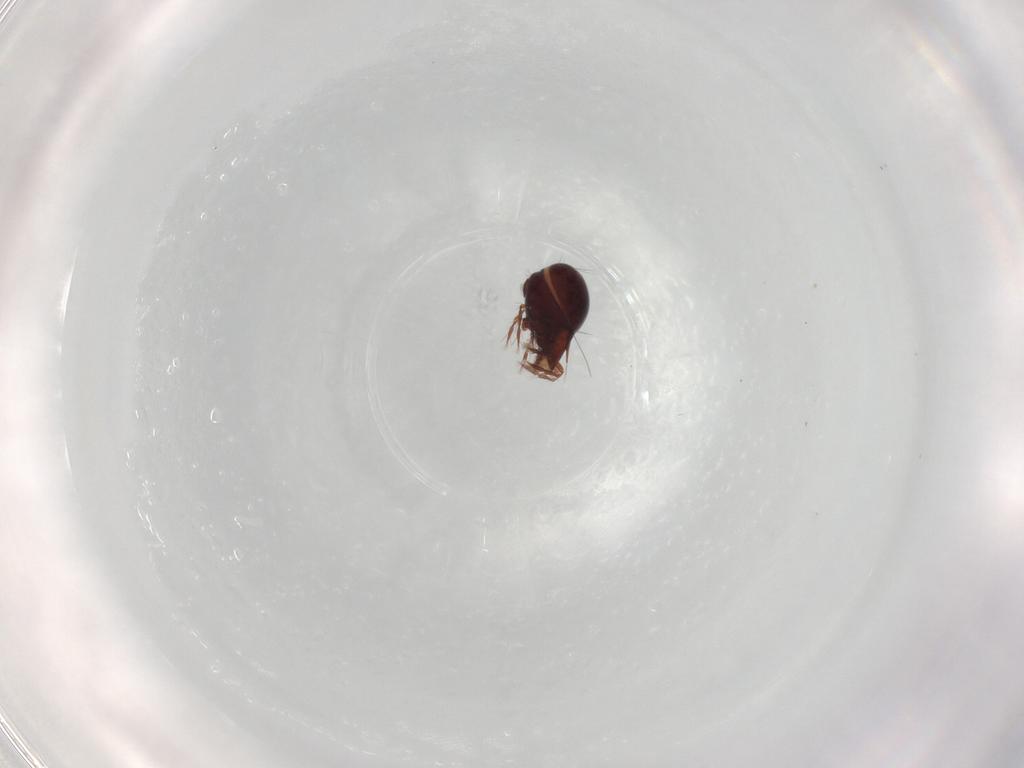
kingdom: Animalia
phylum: Arthropoda
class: Arachnida
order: Sarcoptiformes
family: Ceratoppiidae
